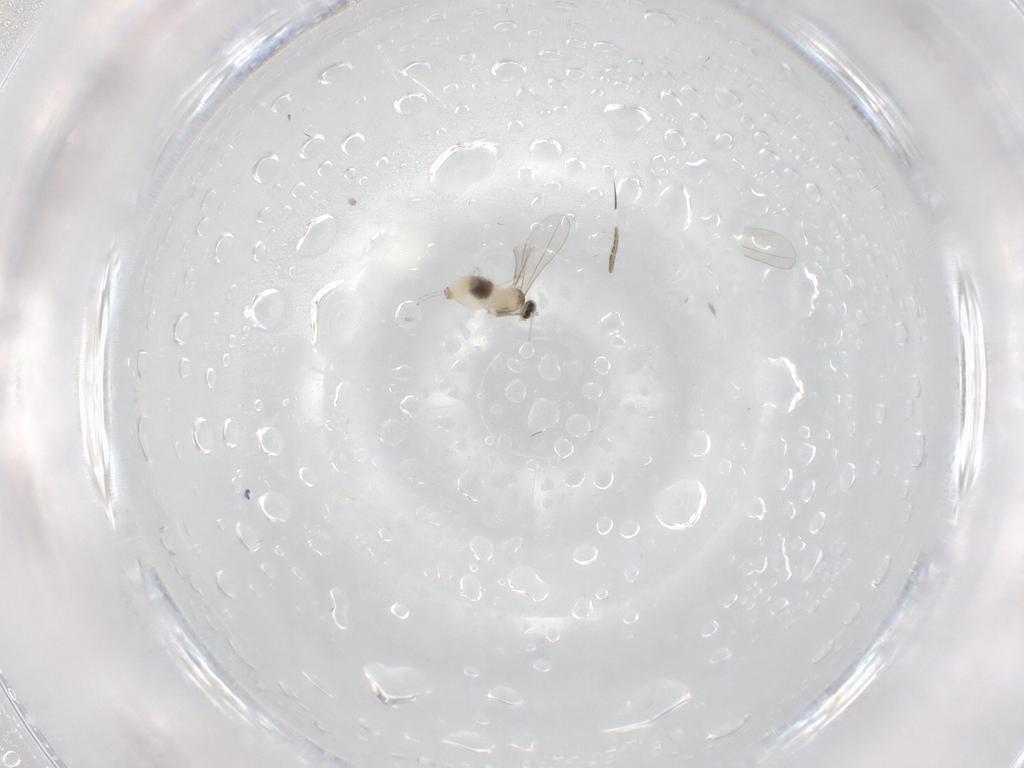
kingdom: Animalia
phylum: Arthropoda
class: Insecta
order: Diptera
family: Cecidomyiidae
